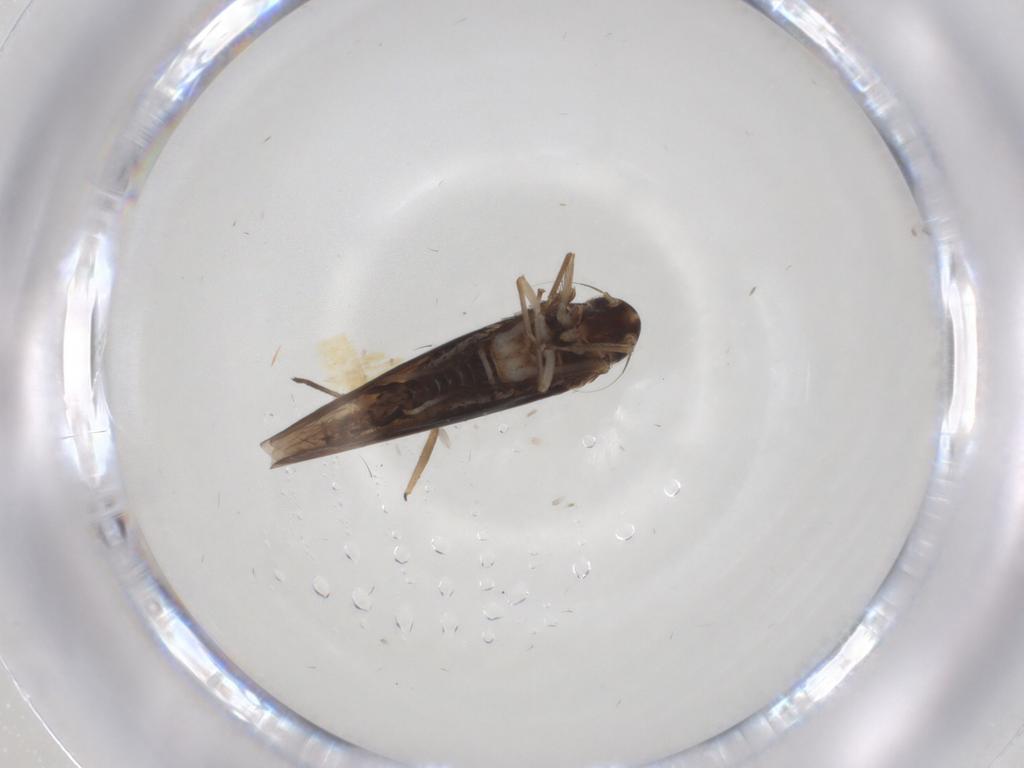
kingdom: Animalia
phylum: Arthropoda
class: Insecta
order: Hemiptera
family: Cicadellidae
